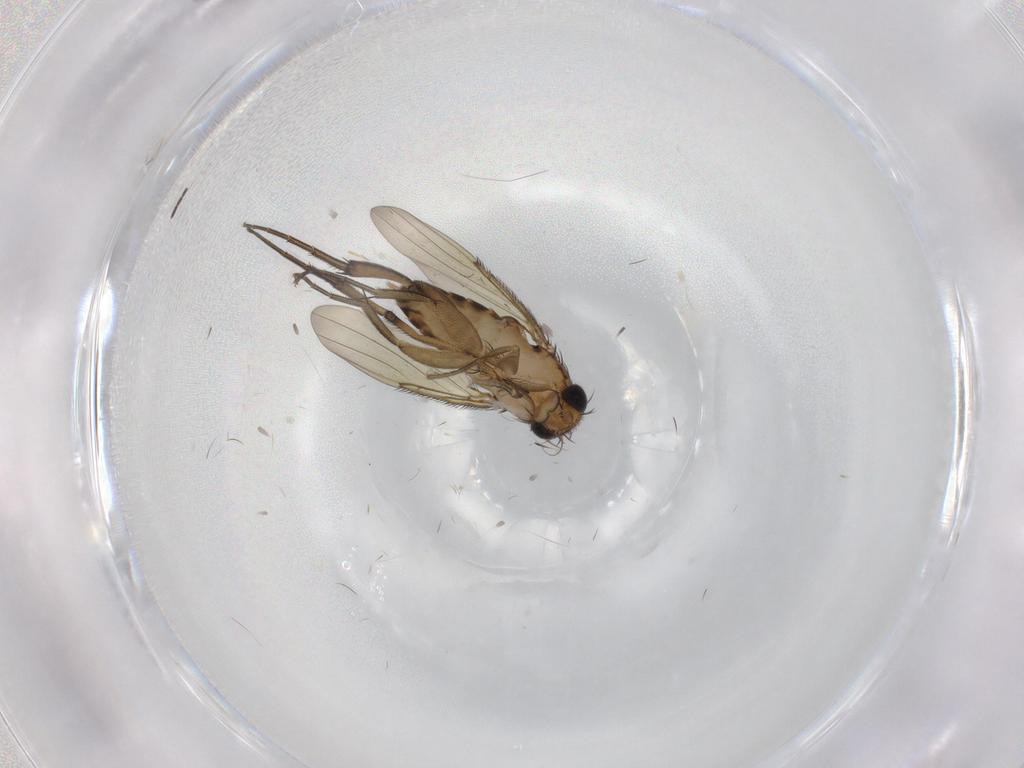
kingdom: Animalia
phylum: Arthropoda
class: Insecta
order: Diptera
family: Phoridae
